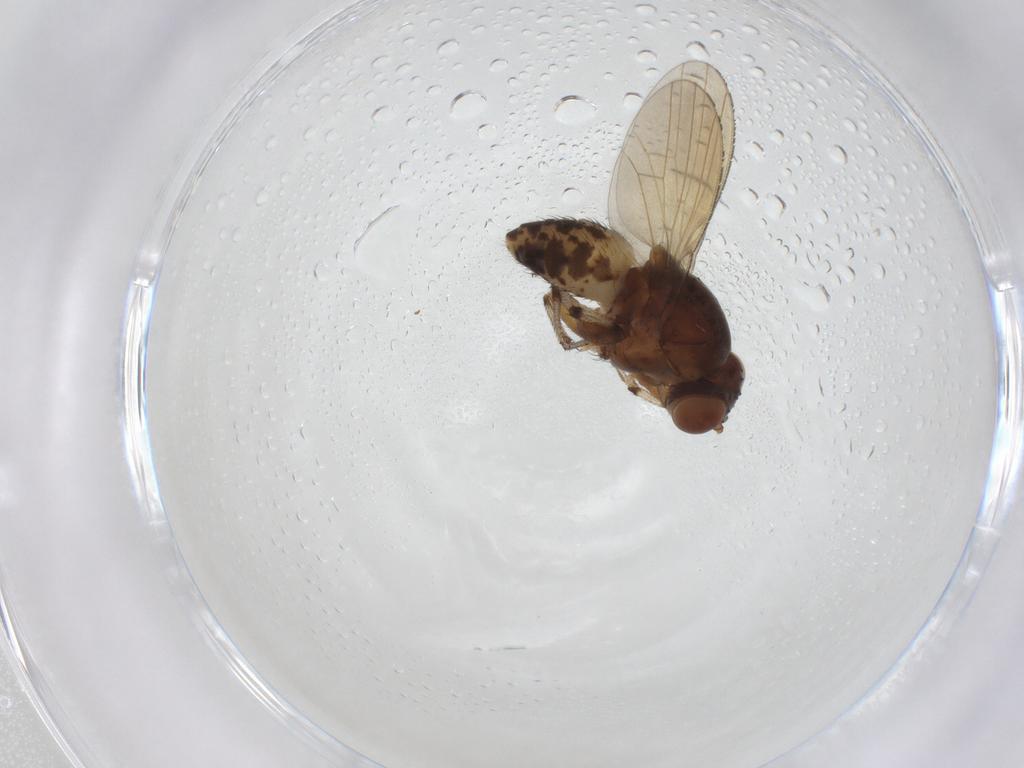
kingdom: Animalia
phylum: Arthropoda
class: Insecta
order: Diptera
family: Lauxaniidae
